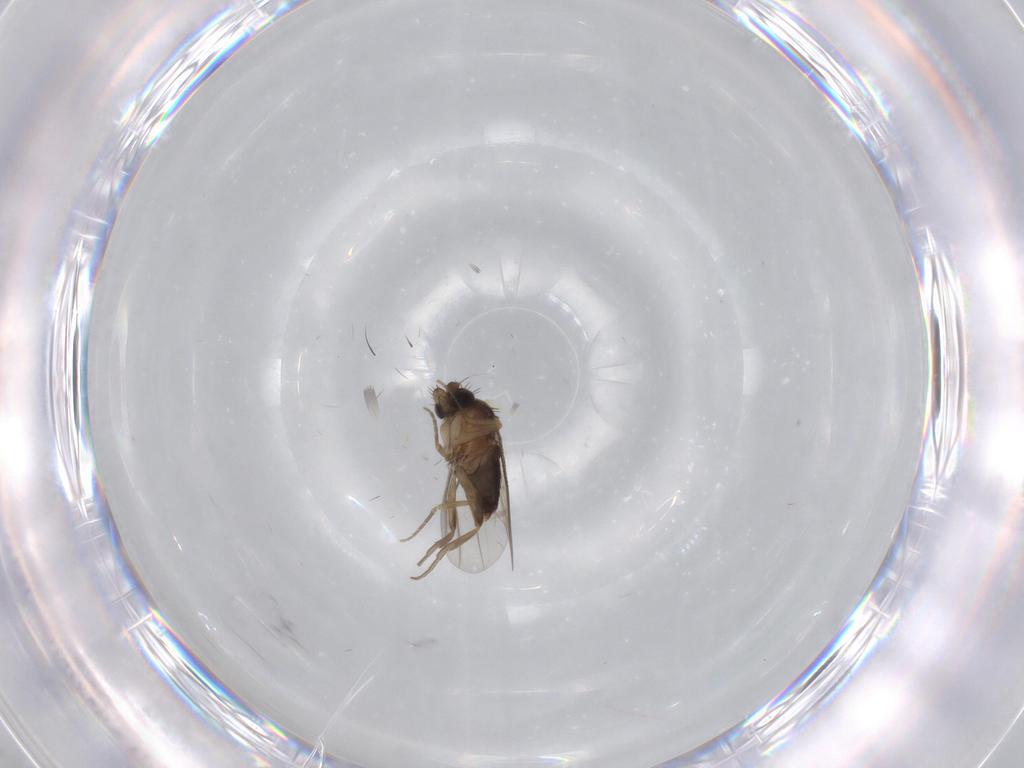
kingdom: Animalia
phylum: Arthropoda
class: Insecta
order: Diptera
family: Phoridae
